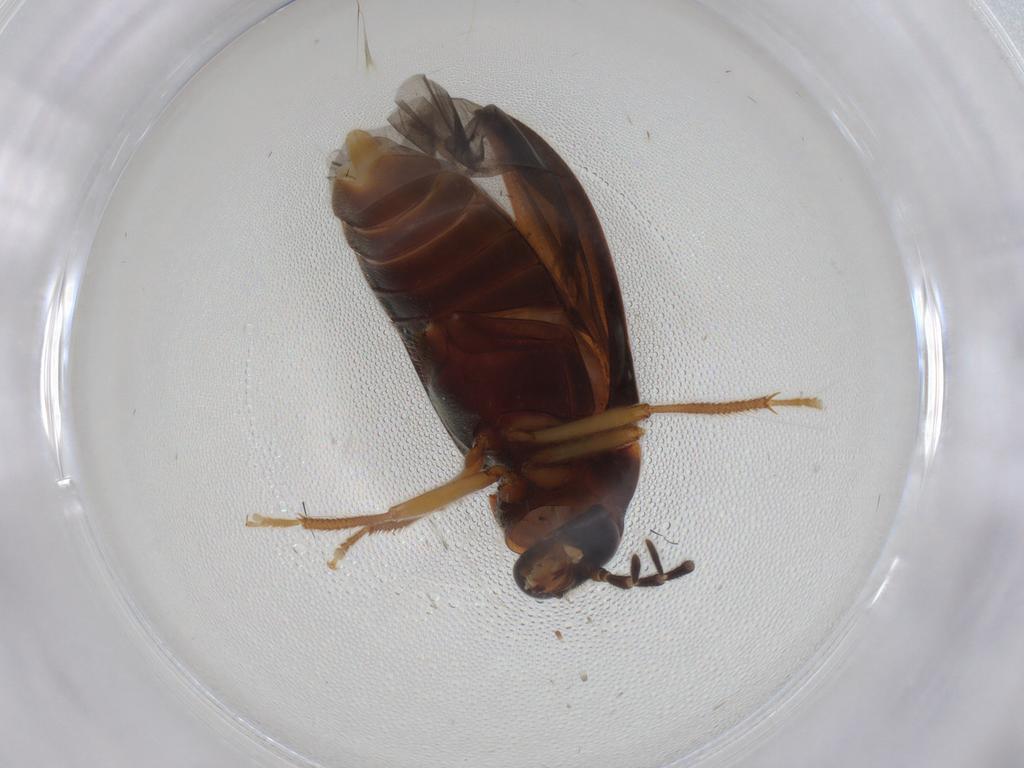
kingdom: Animalia
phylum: Arthropoda
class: Insecta
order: Coleoptera
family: Ptilodactylidae
